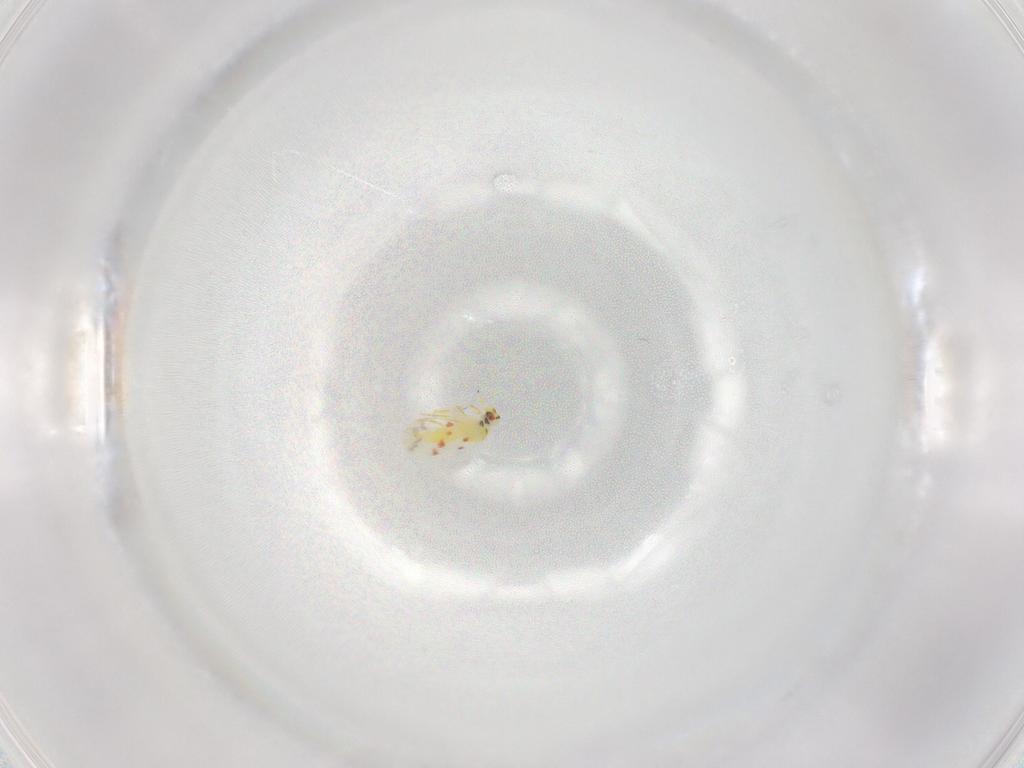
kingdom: Animalia
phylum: Arthropoda
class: Insecta
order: Hemiptera
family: Aleyrodidae
